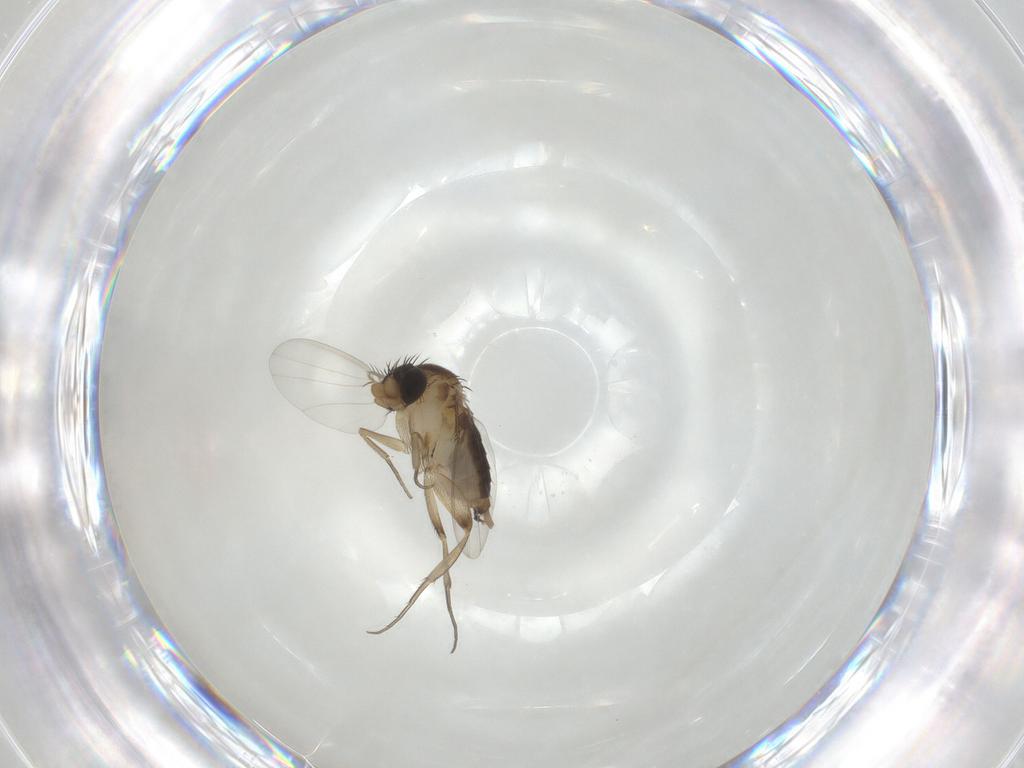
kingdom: Animalia
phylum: Arthropoda
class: Insecta
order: Diptera
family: Phoridae
